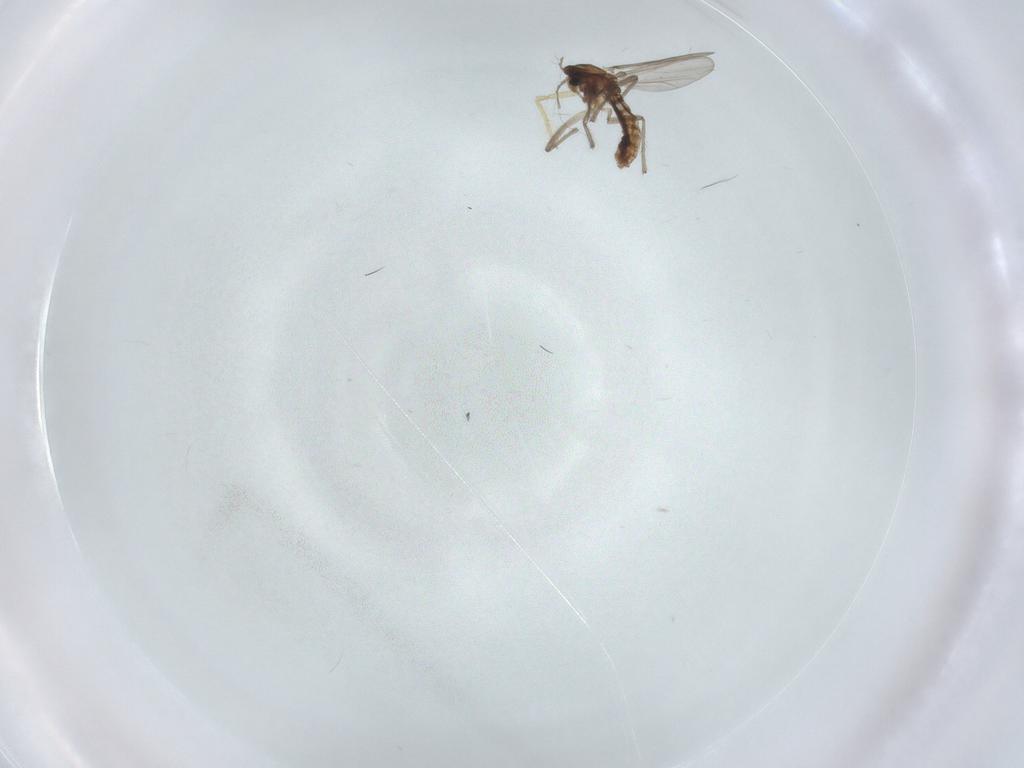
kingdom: Animalia
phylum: Arthropoda
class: Insecta
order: Diptera
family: Chironomidae
